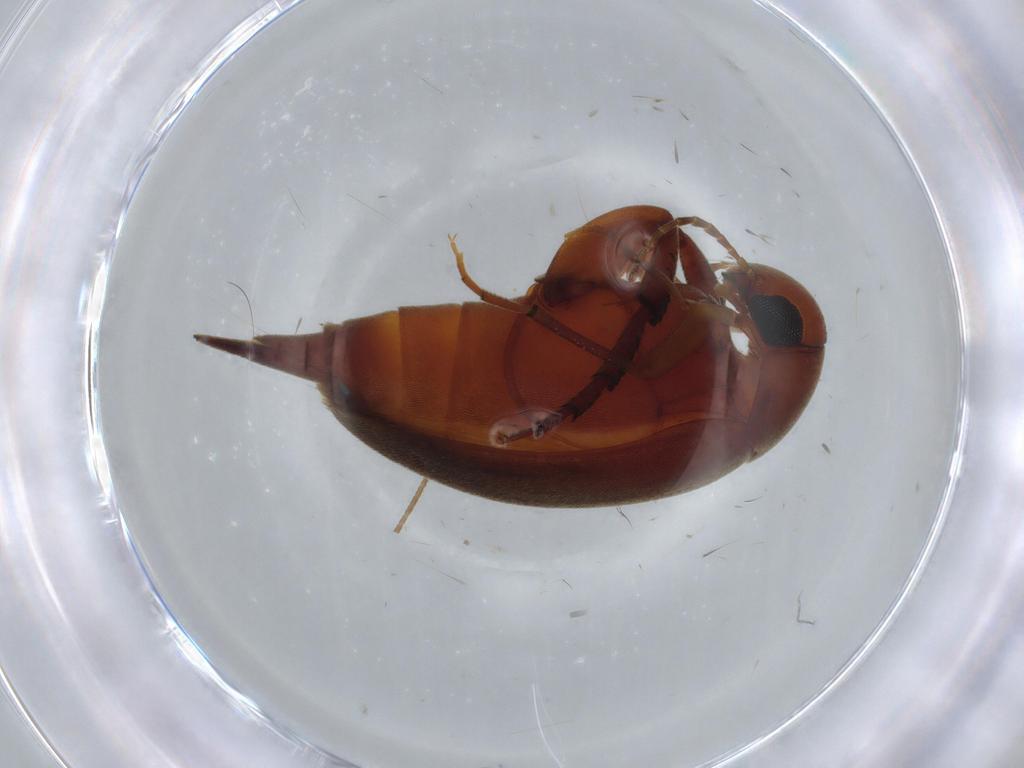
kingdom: Animalia
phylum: Arthropoda
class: Insecta
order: Coleoptera
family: Mordellidae
